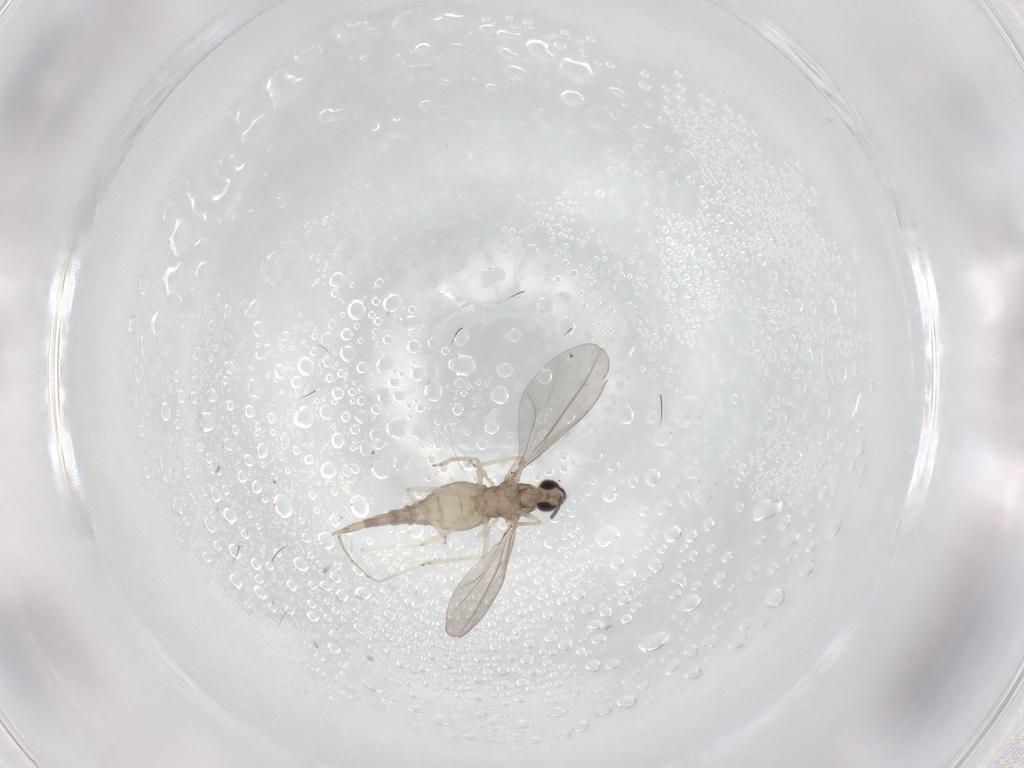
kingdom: Animalia
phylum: Arthropoda
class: Insecta
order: Diptera
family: Cecidomyiidae
